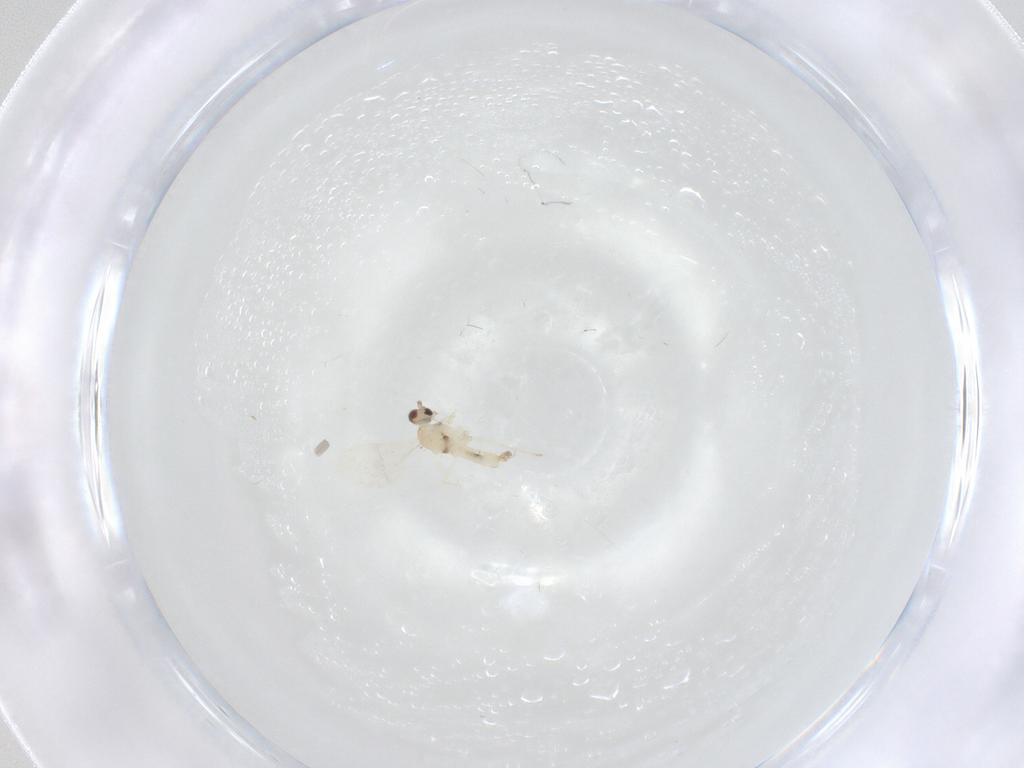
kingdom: Animalia
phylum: Arthropoda
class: Insecta
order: Diptera
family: Cecidomyiidae
